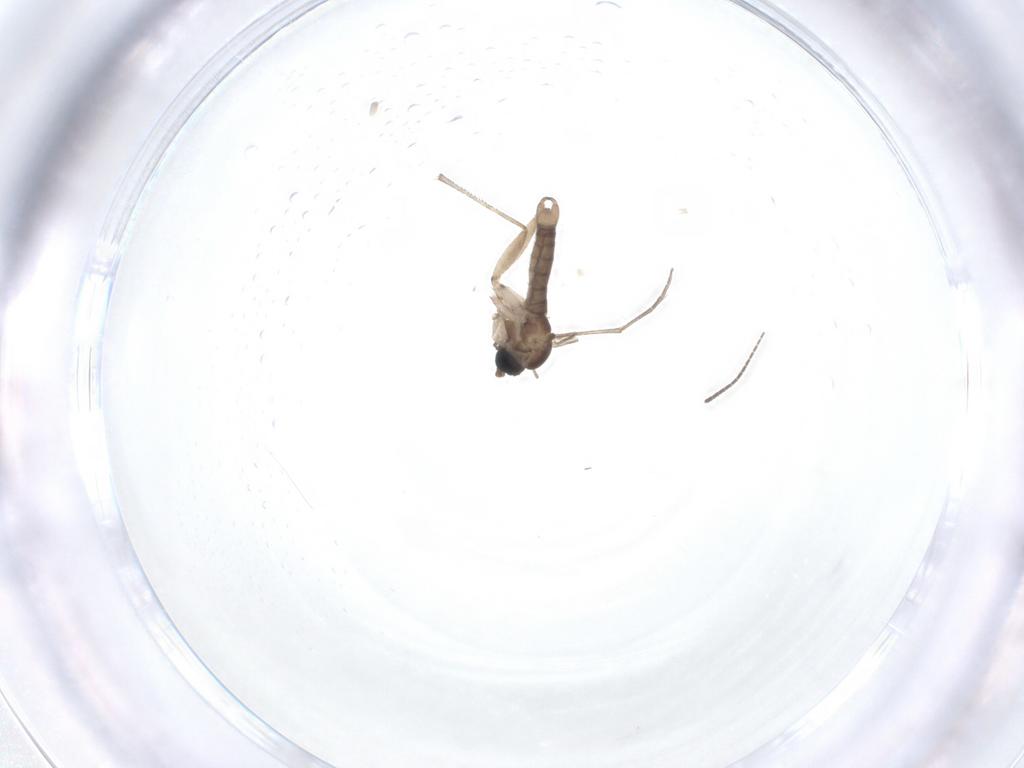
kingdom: Animalia
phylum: Arthropoda
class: Insecta
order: Diptera
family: Sciaridae
